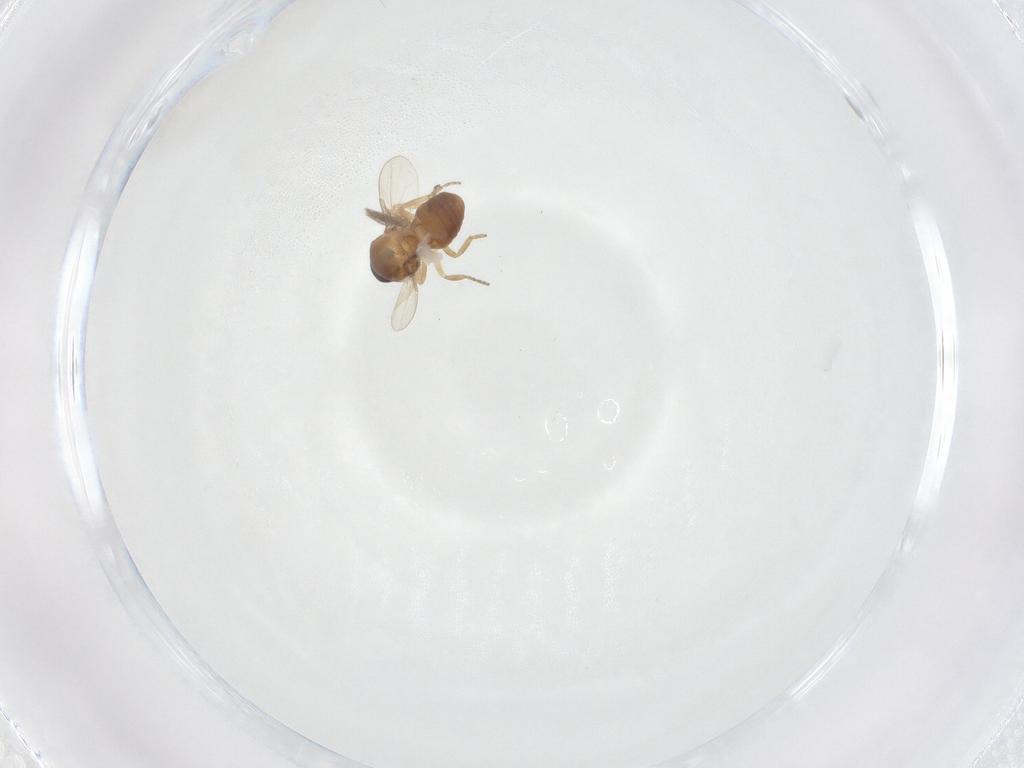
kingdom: Animalia
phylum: Arthropoda
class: Insecta
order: Diptera
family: Ceratopogonidae
